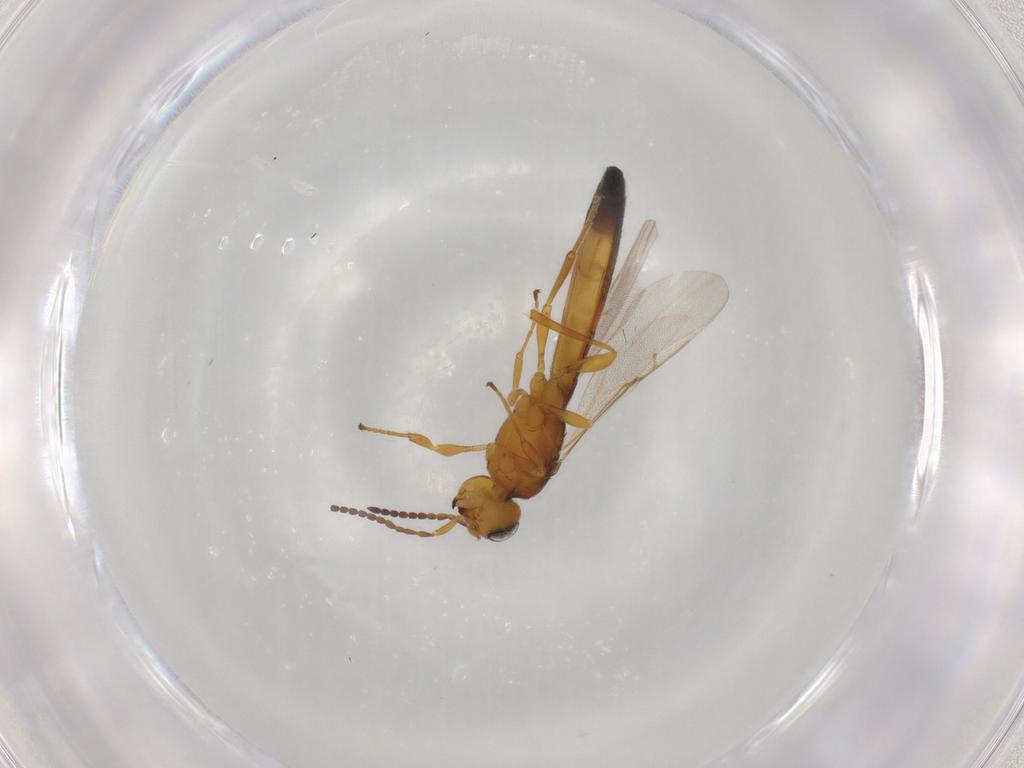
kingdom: Animalia
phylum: Arthropoda
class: Insecta
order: Hymenoptera
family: Scelionidae
